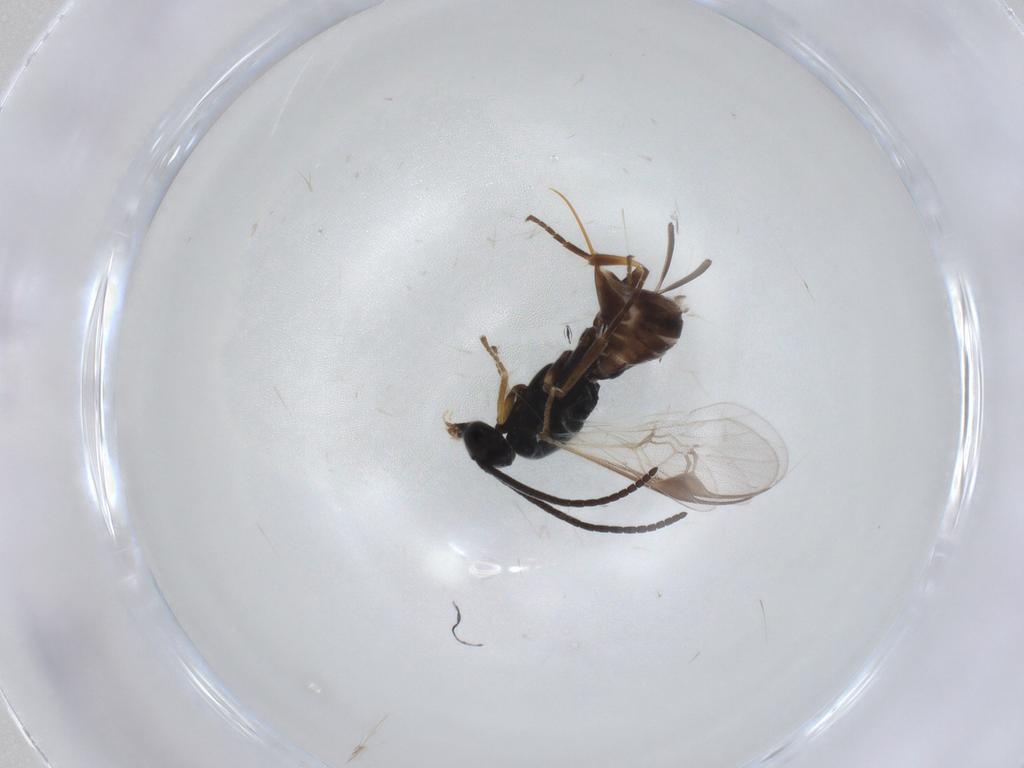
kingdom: Animalia
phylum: Arthropoda
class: Insecta
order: Hymenoptera
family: Braconidae
